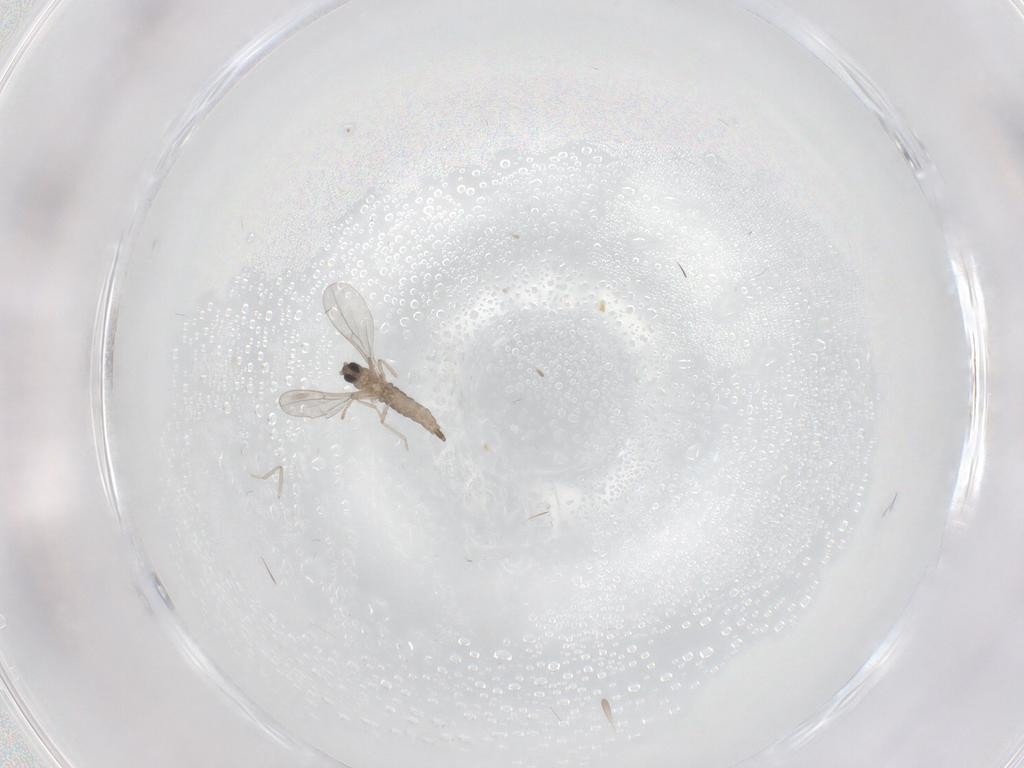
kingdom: Animalia
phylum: Arthropoda
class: Insecta
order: Diptera
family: Cecidomyiidae
